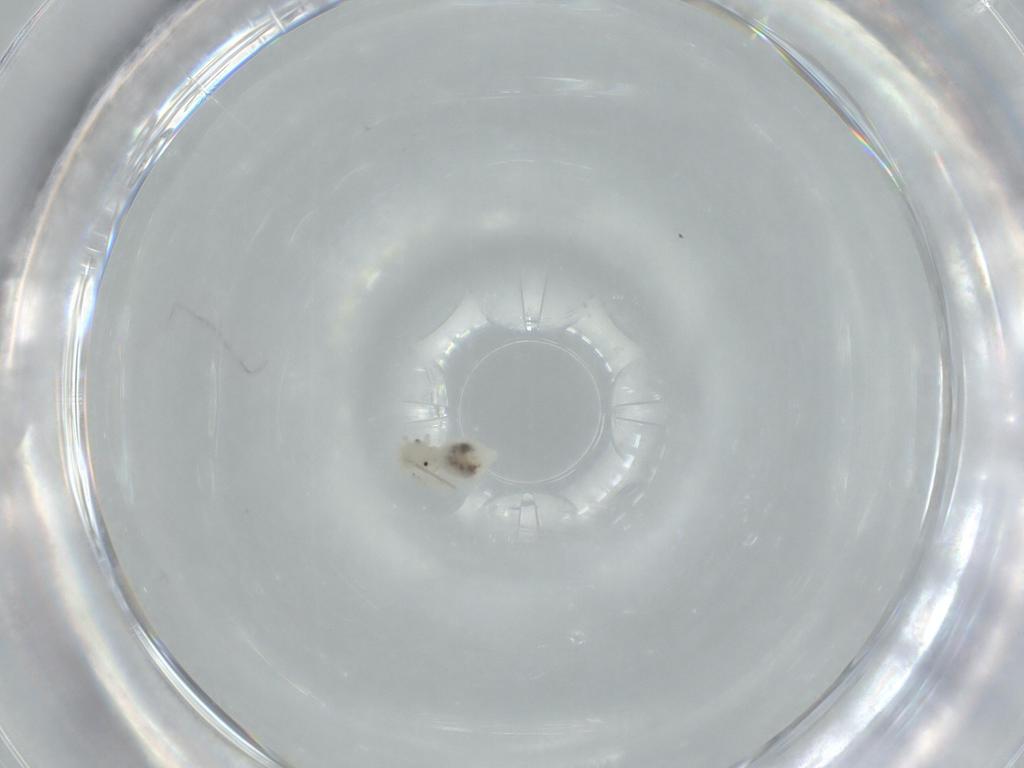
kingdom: Animalia
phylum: Arthropoda
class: Insecta
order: Psocodea
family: Caeciliusidae
